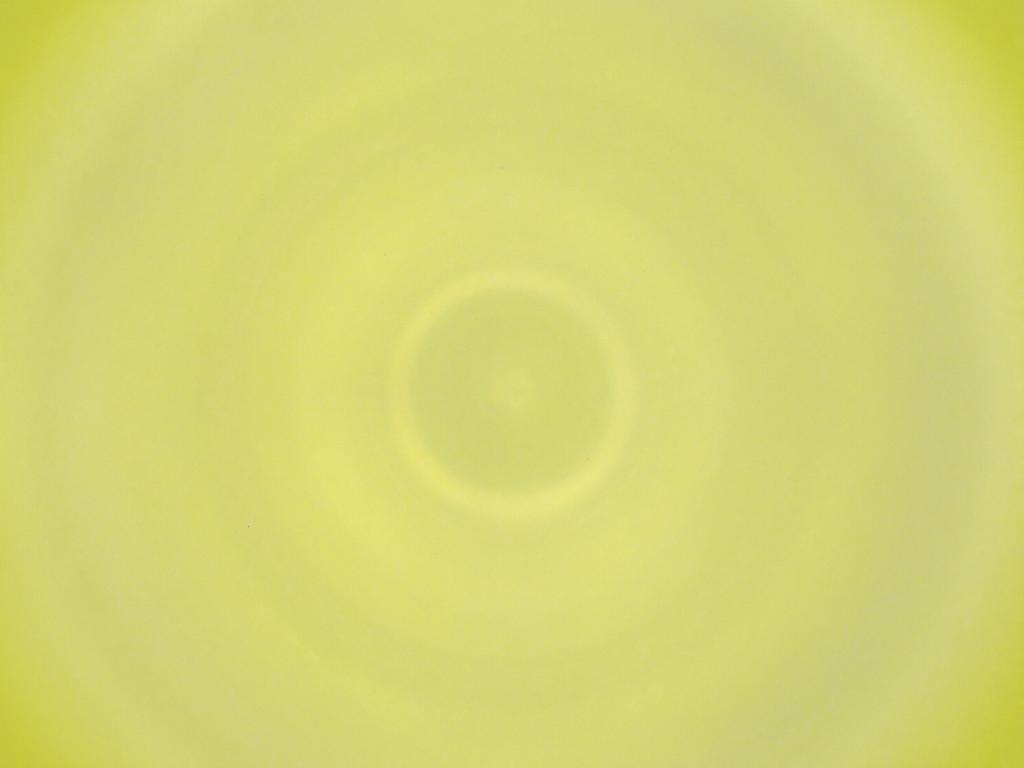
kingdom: Animalia
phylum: Arthropoda
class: Insecta
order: Diptera
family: Cecidomyiidae
